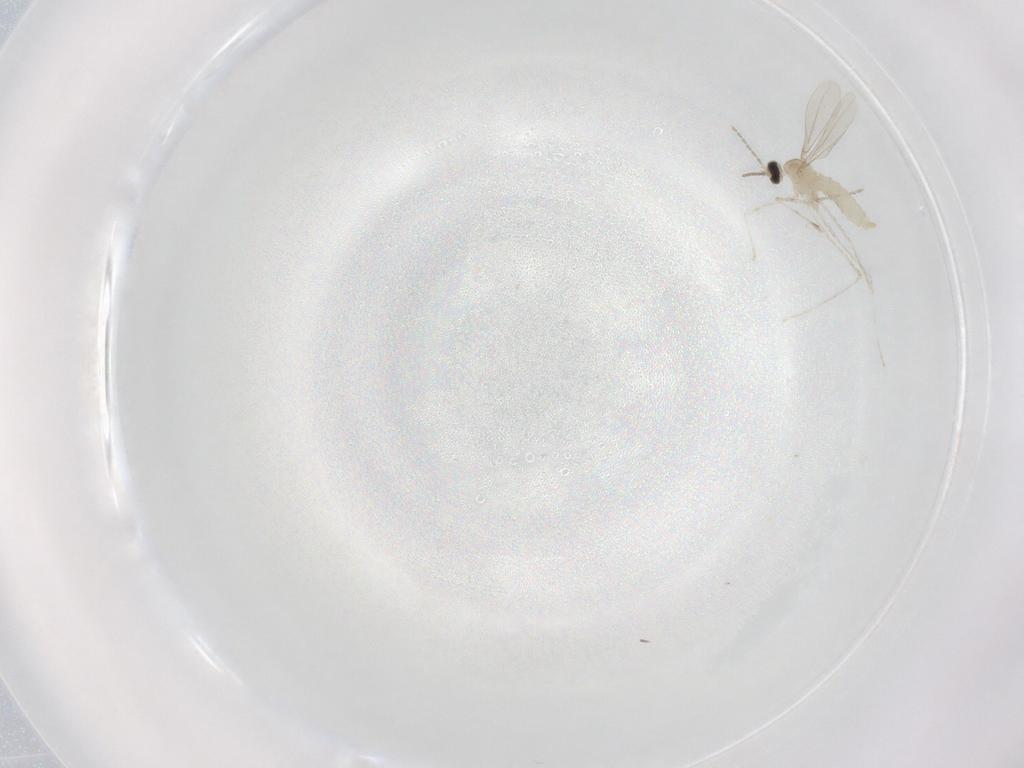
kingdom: Animalia
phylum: Arthropoda
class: Insecta
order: Diptera
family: Cecidomyiidae
